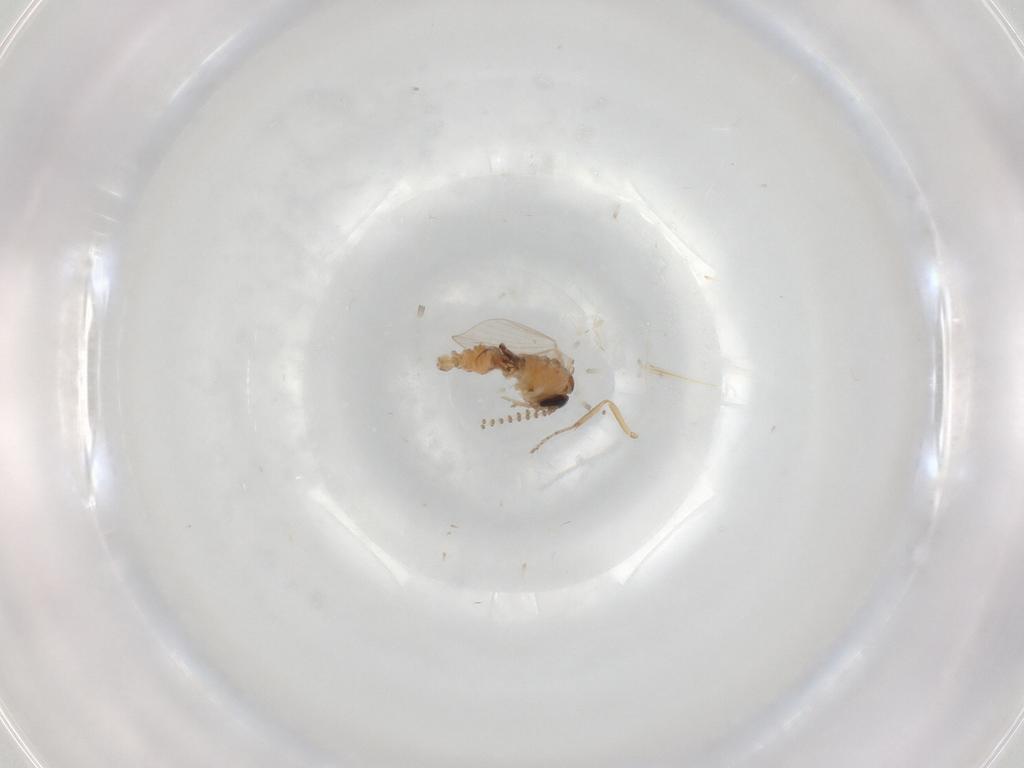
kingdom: Animalia
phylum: Arthropoda
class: Insecta
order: Diptera
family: Psychodidae
